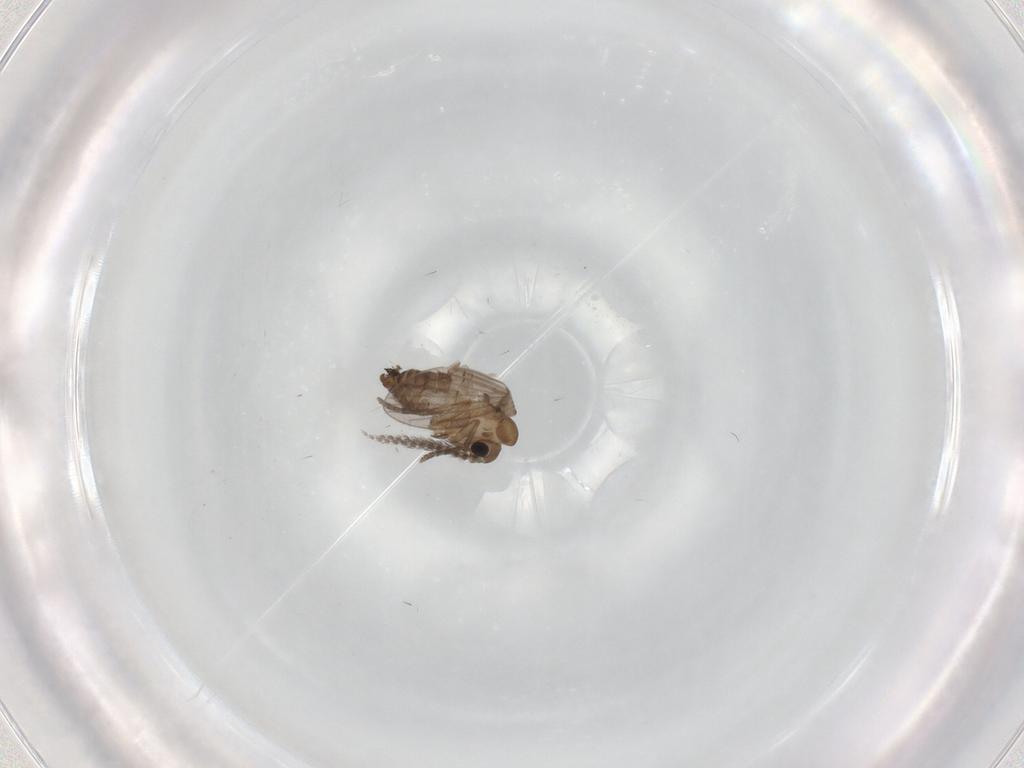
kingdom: Animalia
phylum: Arthropoda
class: Insecta
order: Diptera
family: Ceratopogonidae
